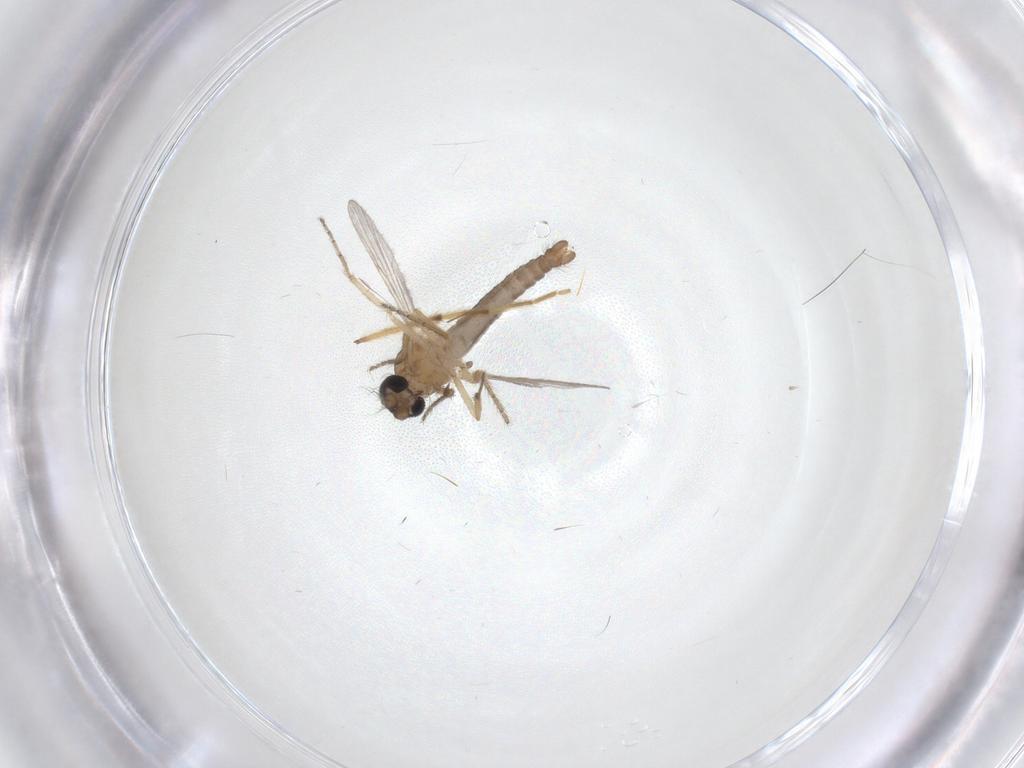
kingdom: Animalia
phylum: Arthropoda
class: Insecta
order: Diptera
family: Ceratopogonidae
